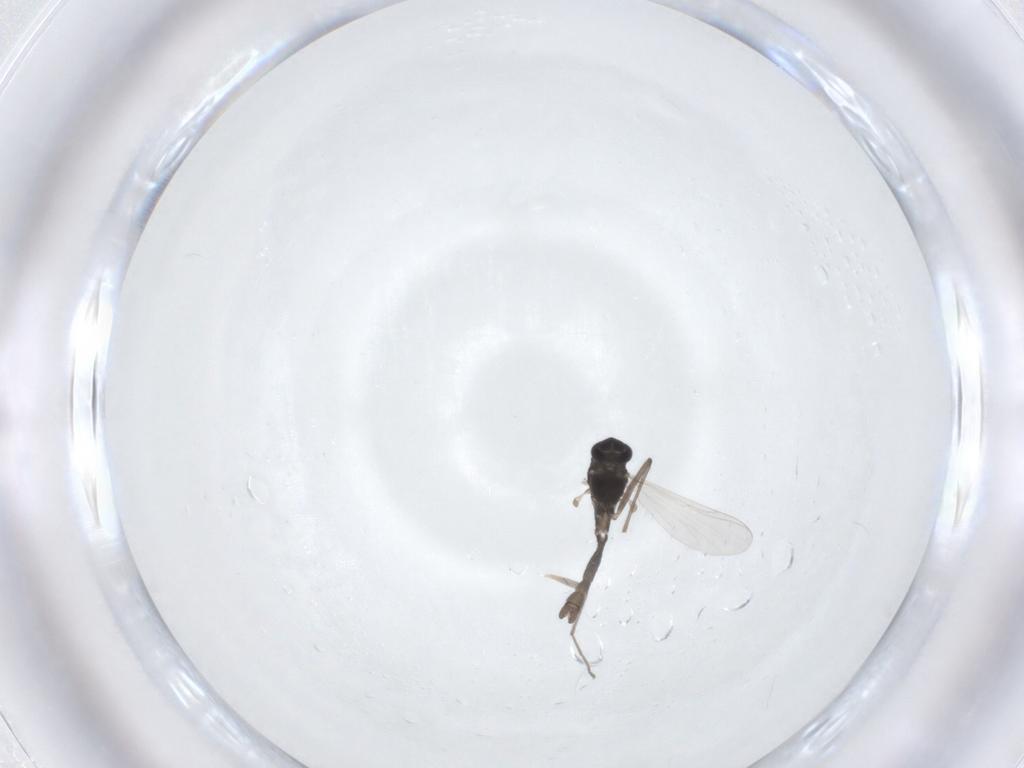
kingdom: Animalia
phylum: Arthropoda
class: Insecta
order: Diptera
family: Chironomidae
